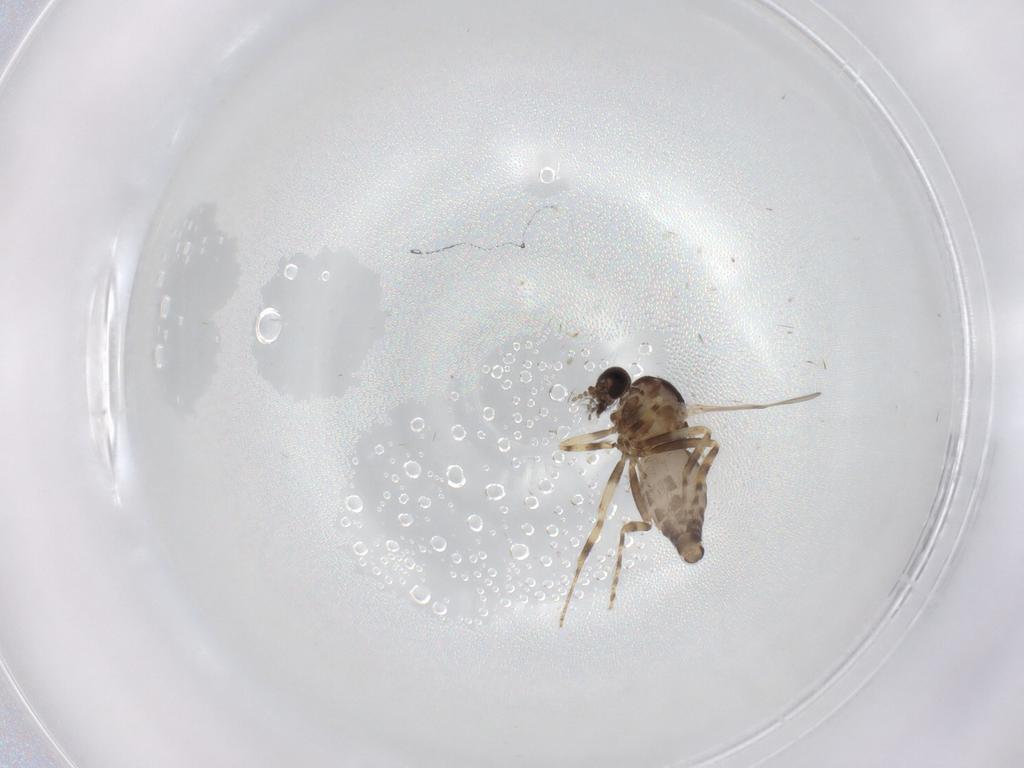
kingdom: Animalia
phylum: Arthropoda
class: Insecta
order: Diptera
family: Ceratopogonidae
